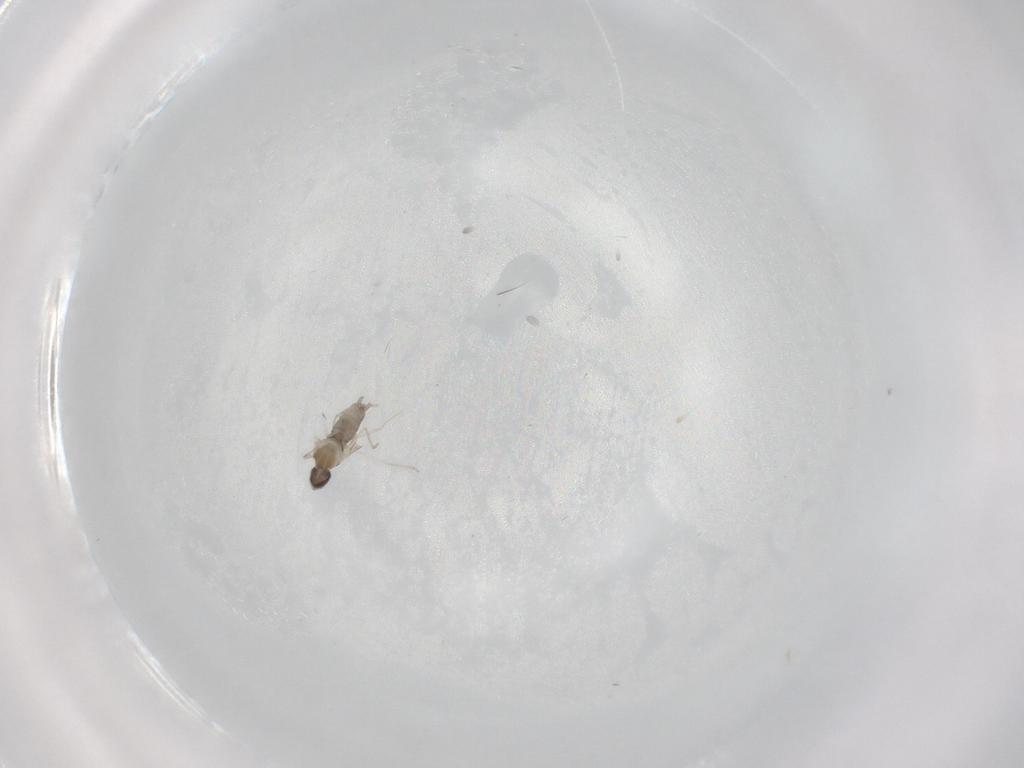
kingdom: Animalia
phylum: Arthropoda
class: Insecta
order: Diptera
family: Cecidomyiidae
